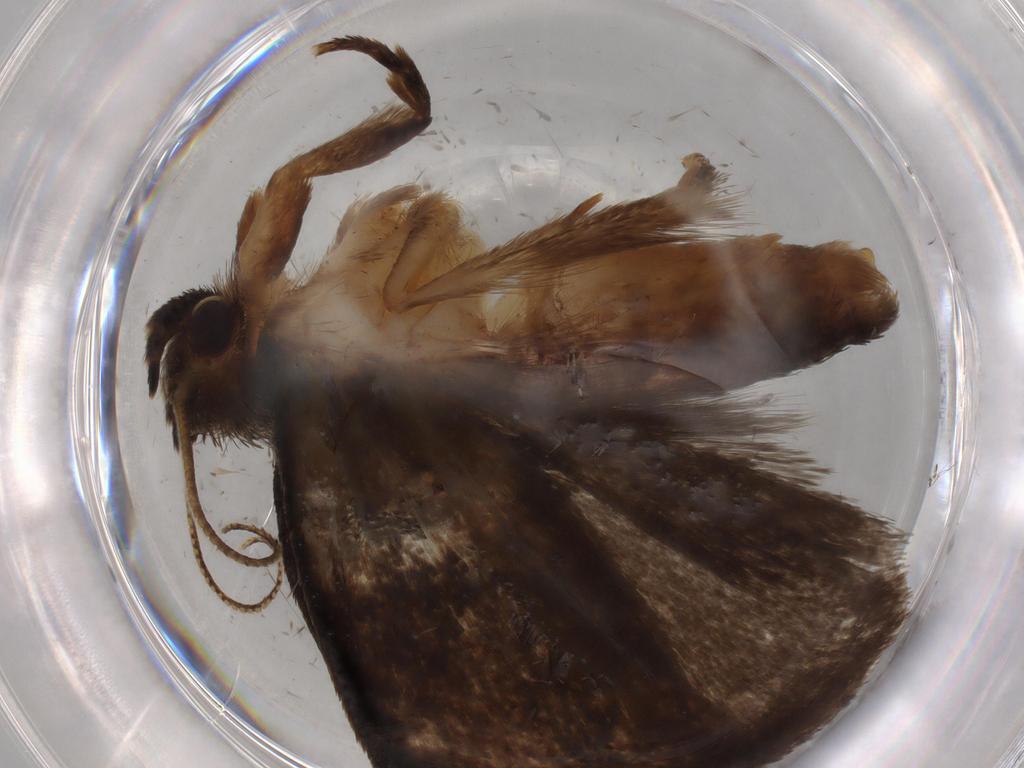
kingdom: Animalia
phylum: Arthropoda
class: Insecta
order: Lepidoptera
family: Tineidae
